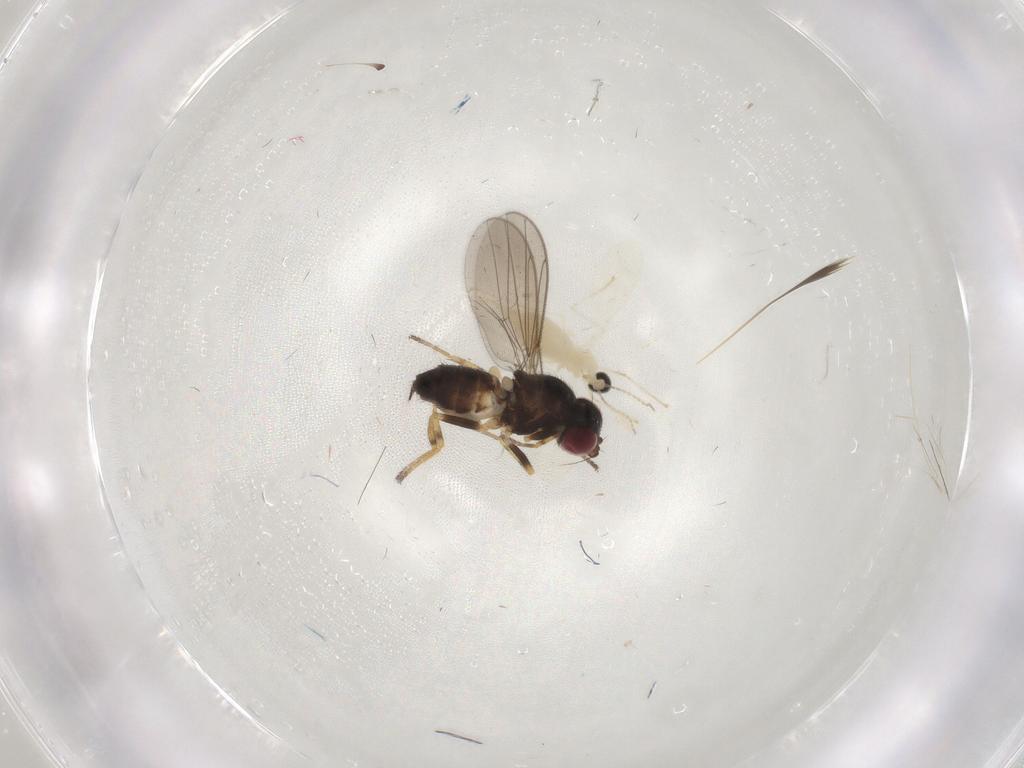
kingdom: Animalia
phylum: Arthropoda
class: Insecta
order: Diptera
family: Chloropidae
